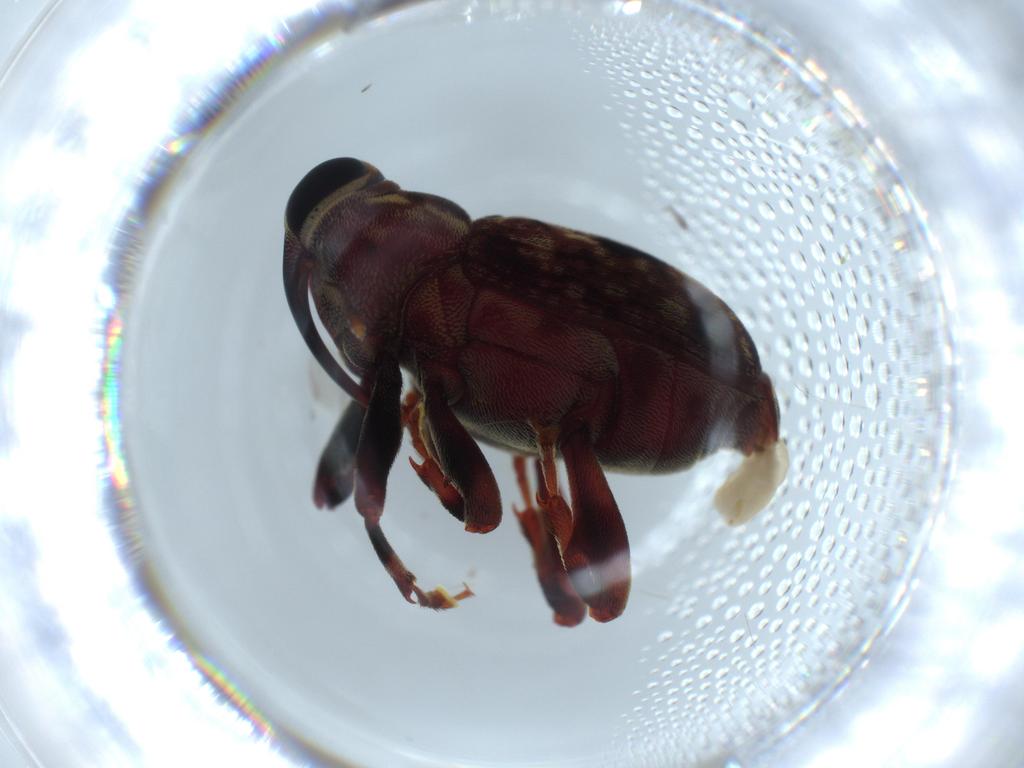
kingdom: Animalia
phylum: Arthropoda
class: Insecta
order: Coleoptera
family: Curculionidae
